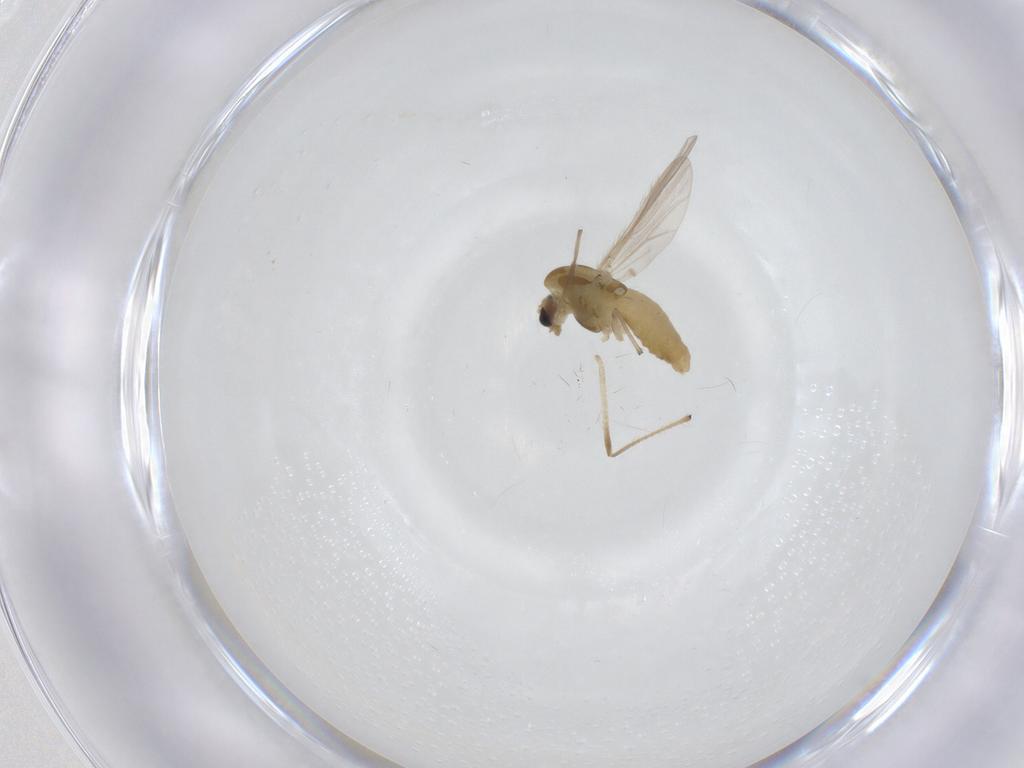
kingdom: Animalia
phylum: Arthropoda
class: Insecta
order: Diptera
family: Chironomidae
